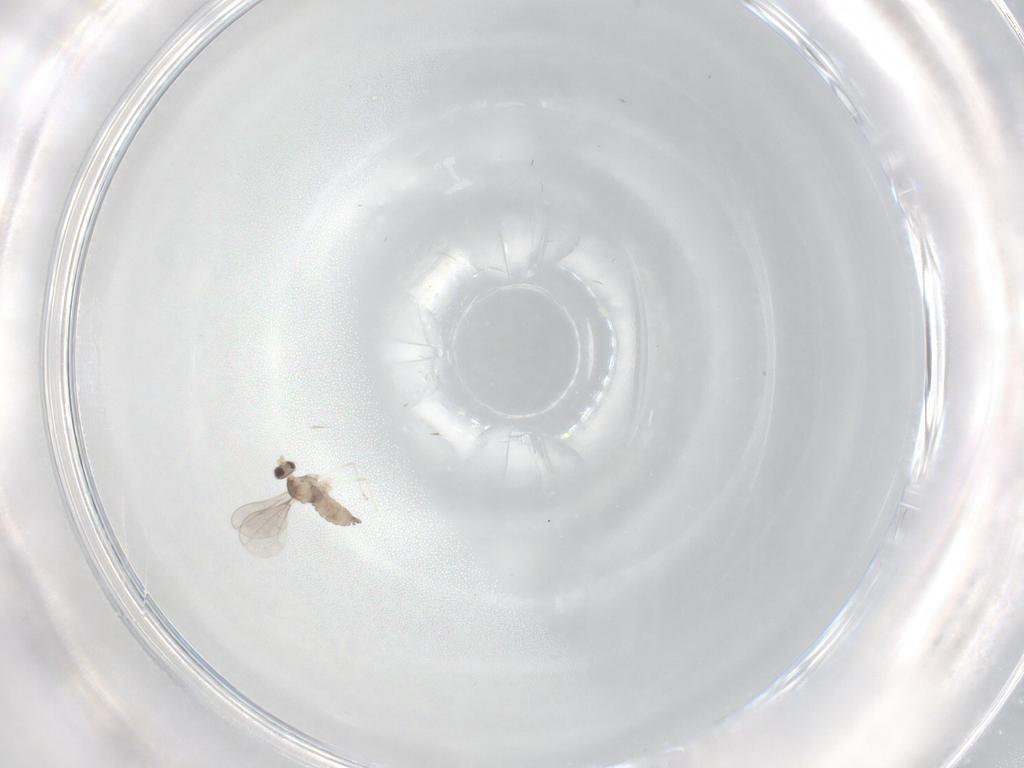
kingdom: Animalia
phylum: Arthropoda
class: Insecta
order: Diptera
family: Cecidomyiidae
